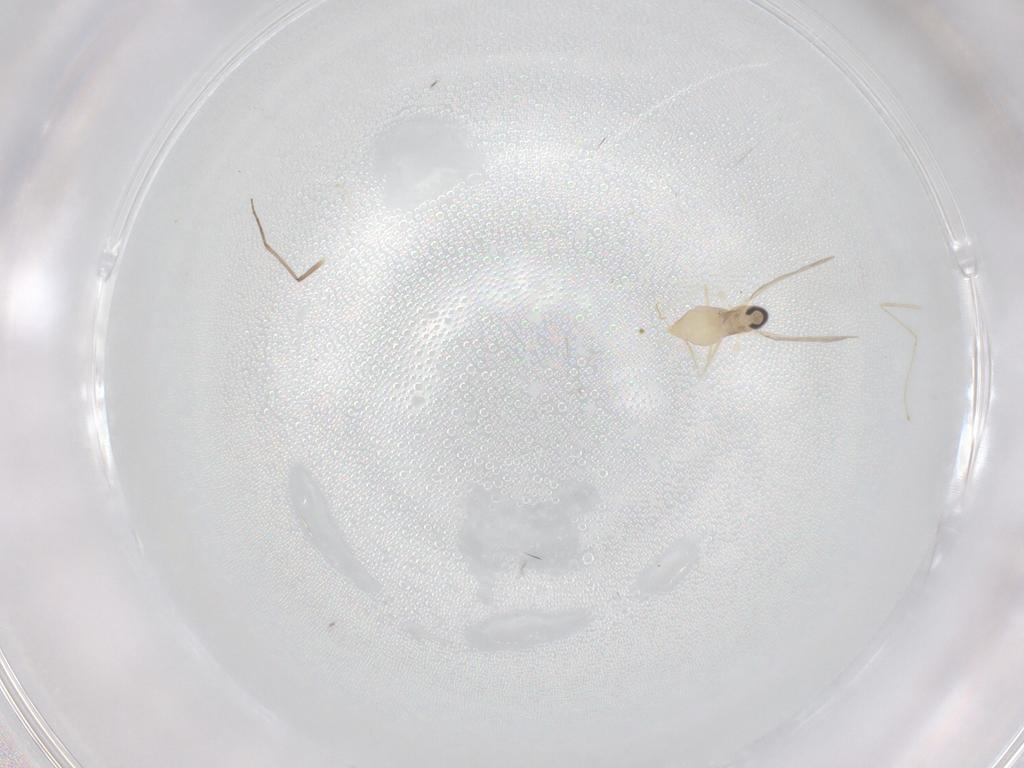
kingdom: Animalia
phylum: Arthropoda
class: Insecta
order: Diptera
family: Chironomidae
